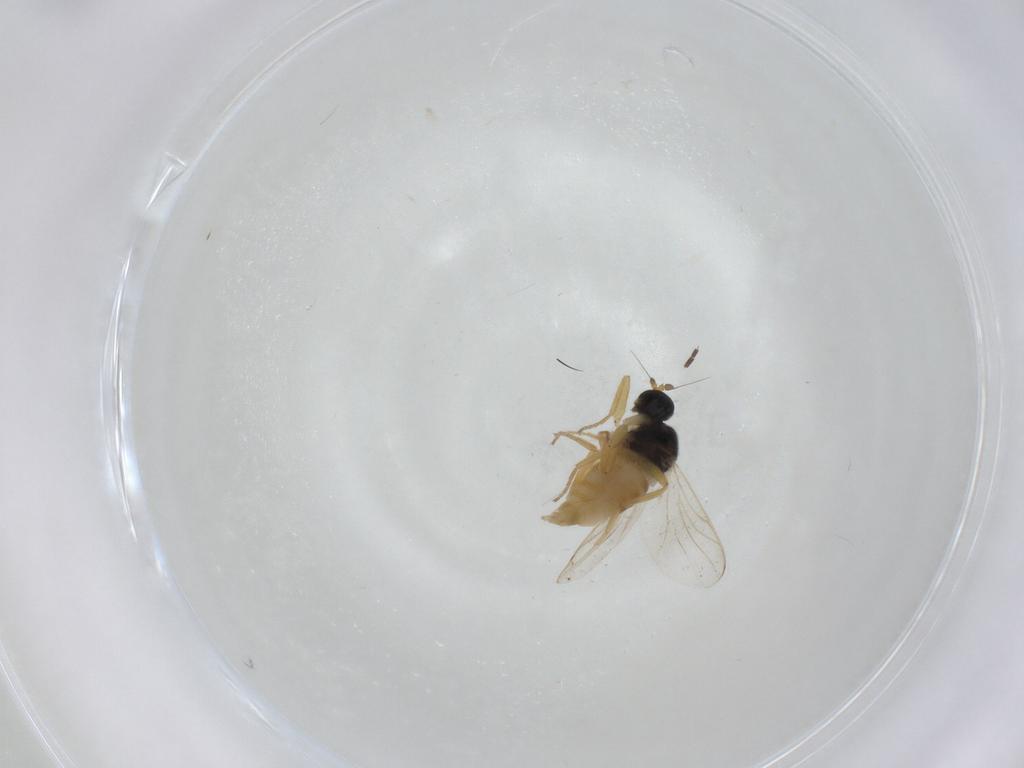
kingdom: Animalia
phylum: Arthropoda
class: Insecta
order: Diptera
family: Hybotidae
